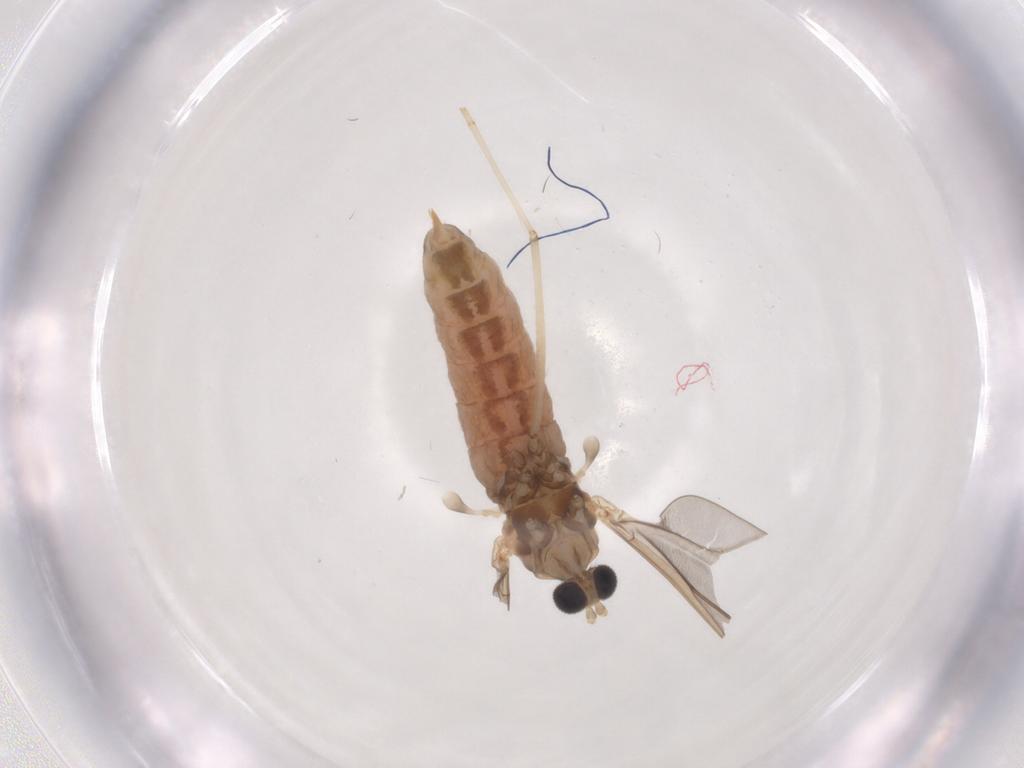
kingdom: Animalia
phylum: Arthropoda
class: Insecta
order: Diptera
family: Cecidomyiidae
